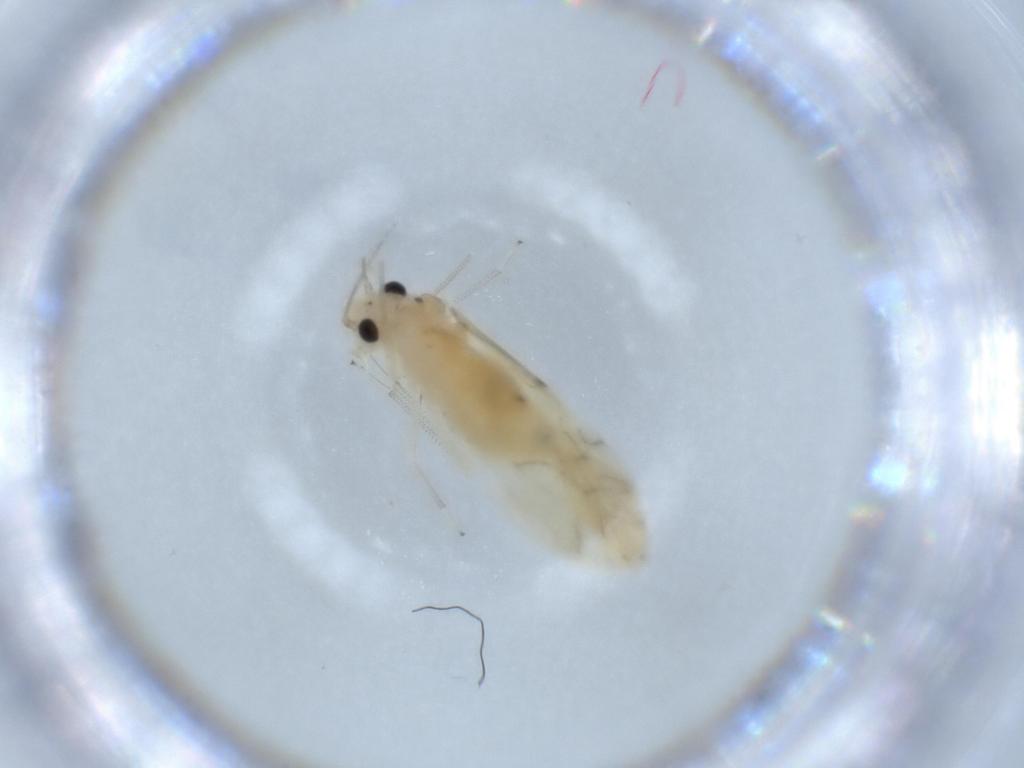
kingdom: Animalia
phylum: Arthropoda
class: Insecta
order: Psocodea
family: Caeciliusidae
